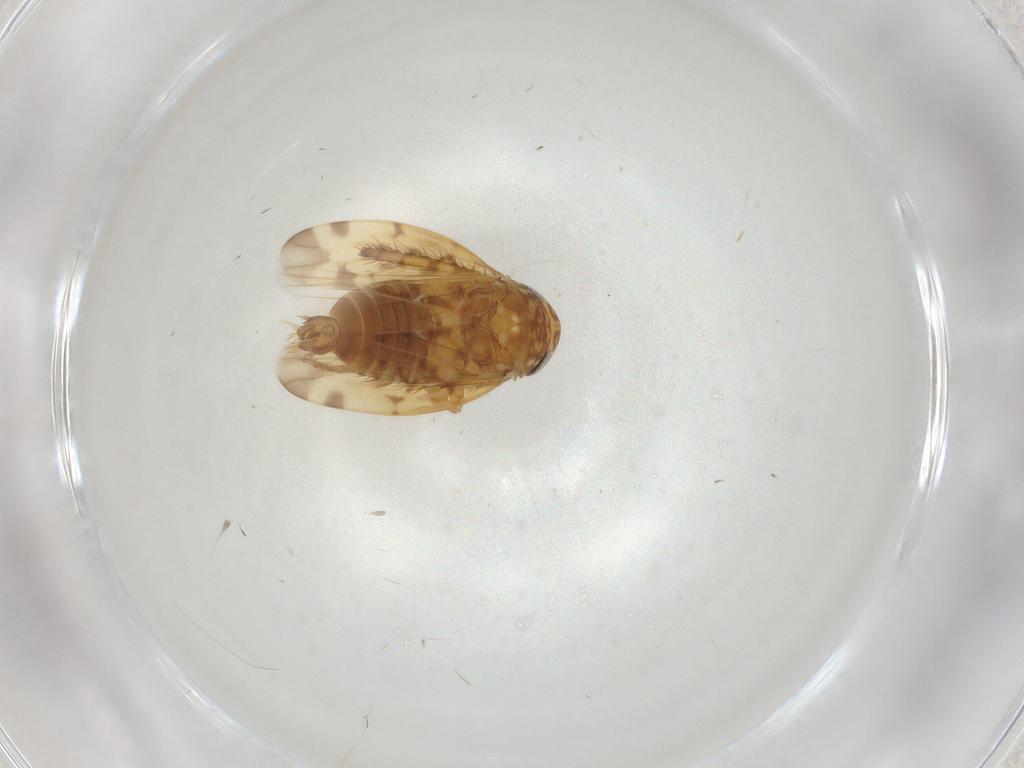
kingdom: Animalia
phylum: Arthropoda
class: Insecta
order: Hemiptera
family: Cicadellidae
